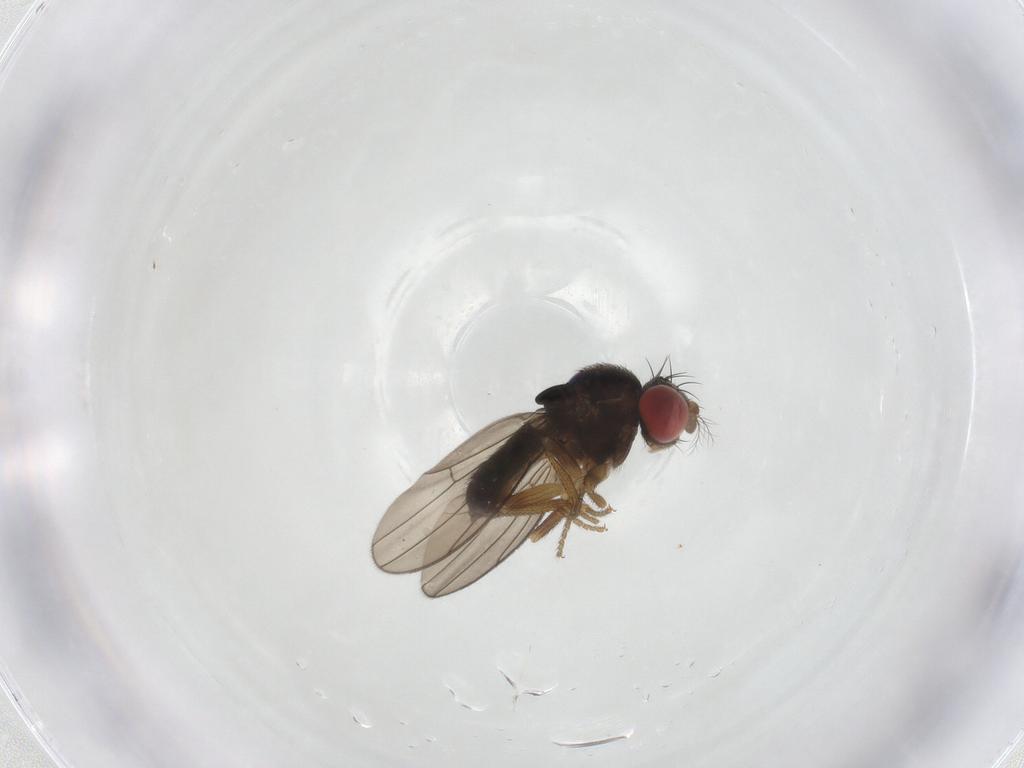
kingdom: Animalia
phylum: Arthropoda
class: Insecta
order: Diptera
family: Drosophilidae
